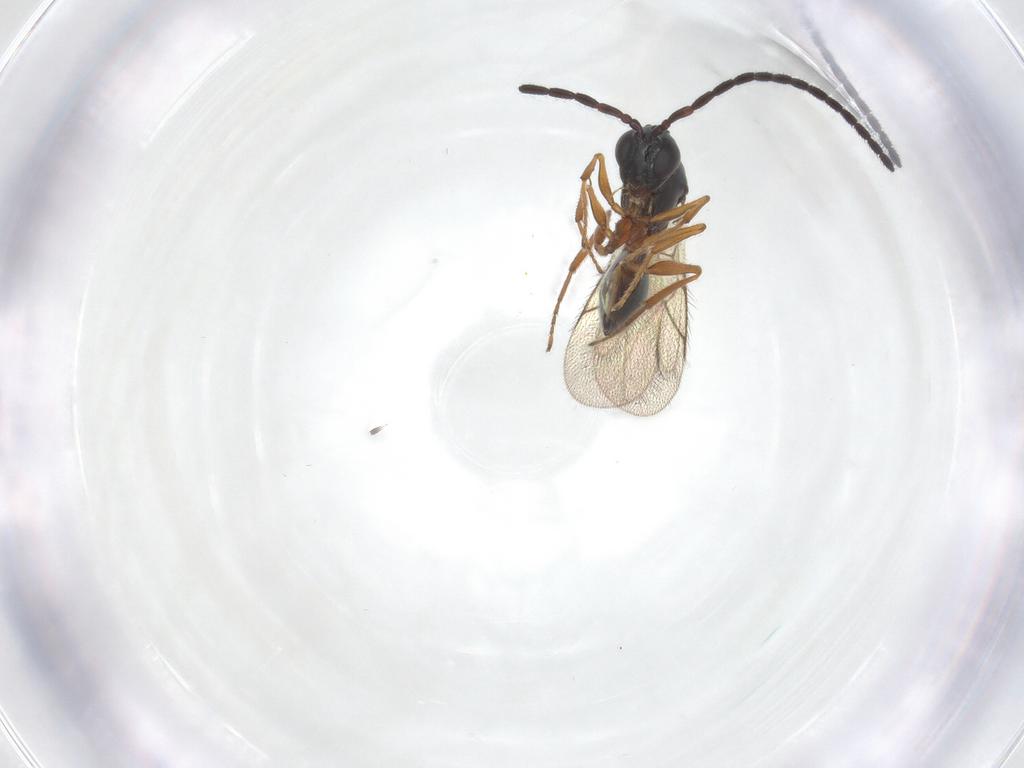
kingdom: Animalia
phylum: Arthropoda
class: Insecta
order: Hymenoptera
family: Figitidae
